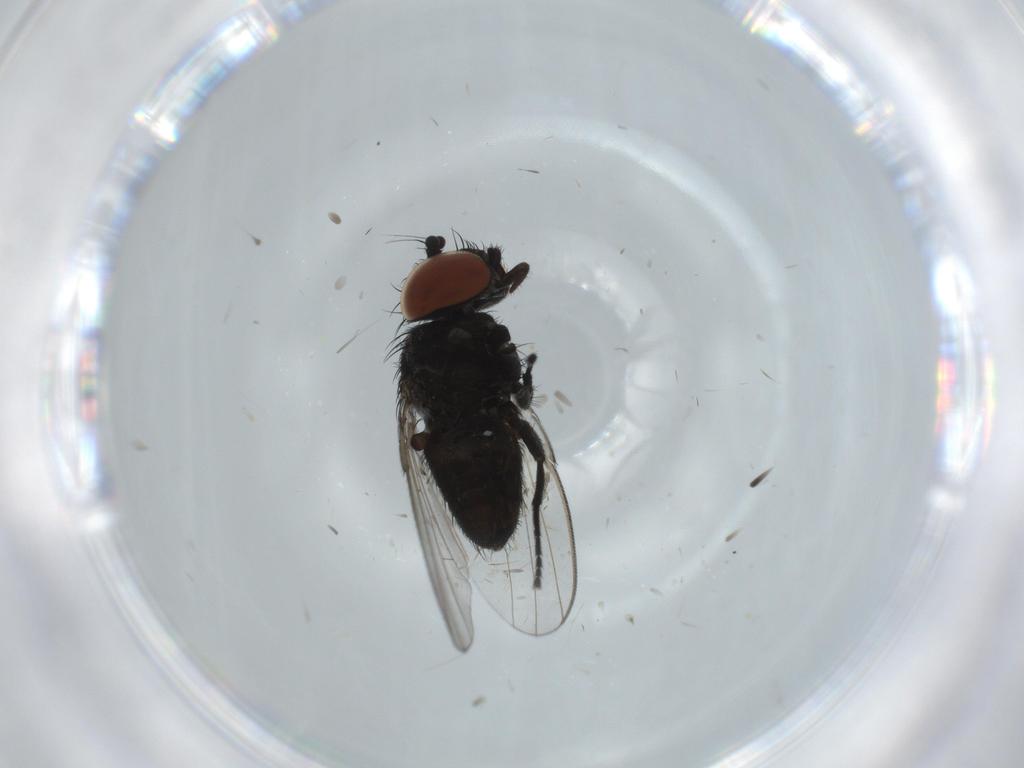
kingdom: Animalia
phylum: Arthropoda
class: Insecta
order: Diptera
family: Milichiidae
